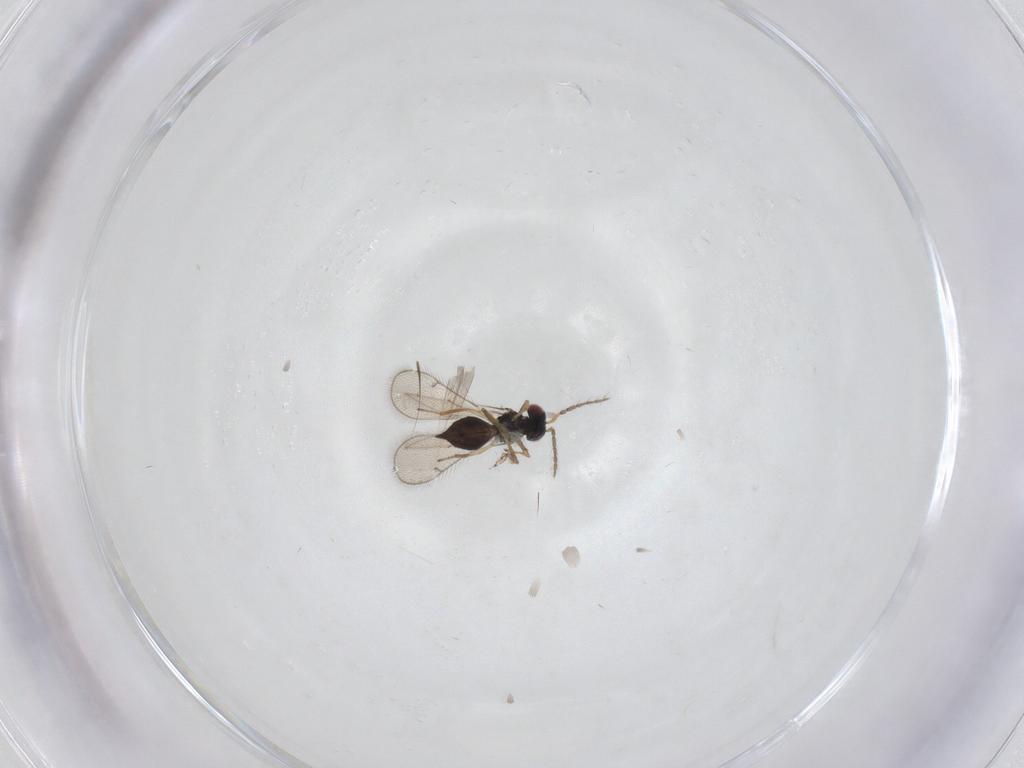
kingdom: Animalia
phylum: Arthropoda
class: Insecta
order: Hymenoptera
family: Eulophidae
